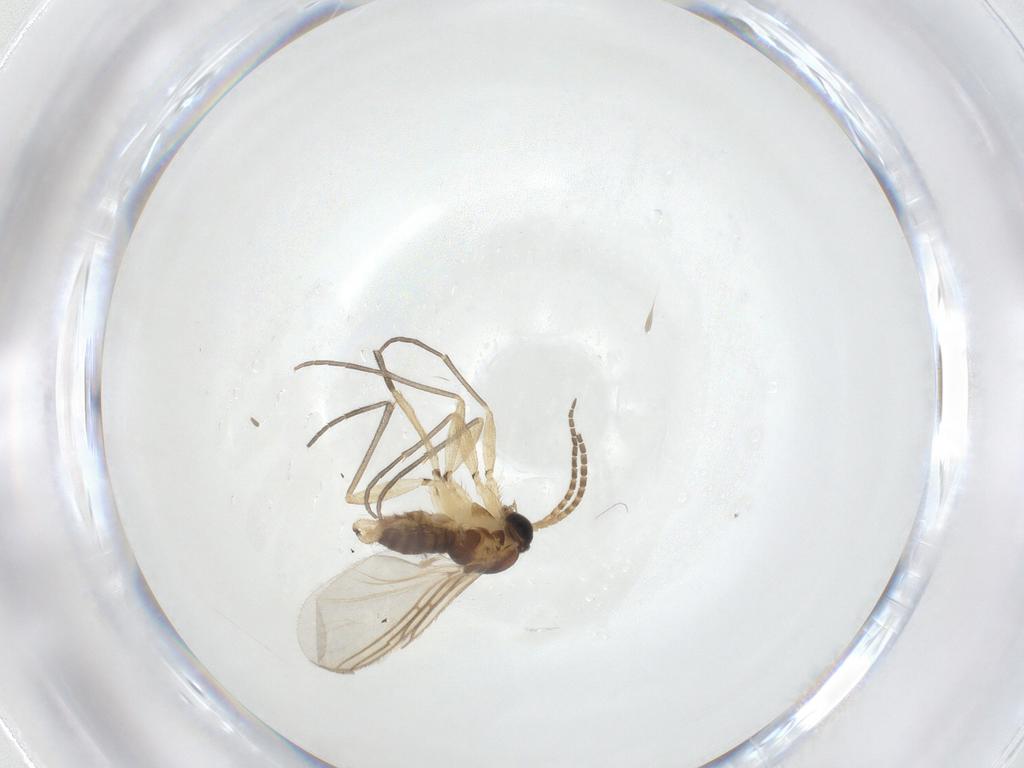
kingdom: Animalia
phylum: Arthropoda
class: Insecta
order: Diptera
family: Sciaridae
